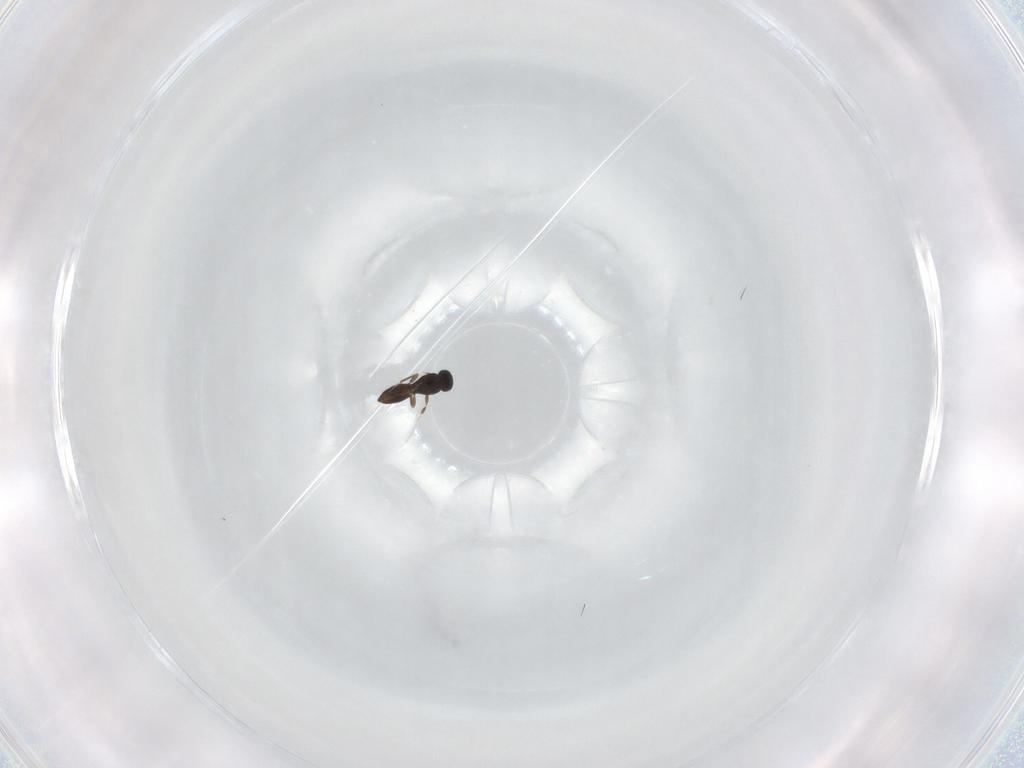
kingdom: Animalia
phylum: Arthropoda
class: Insecta
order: Hymenoptera
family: Scelionidae
